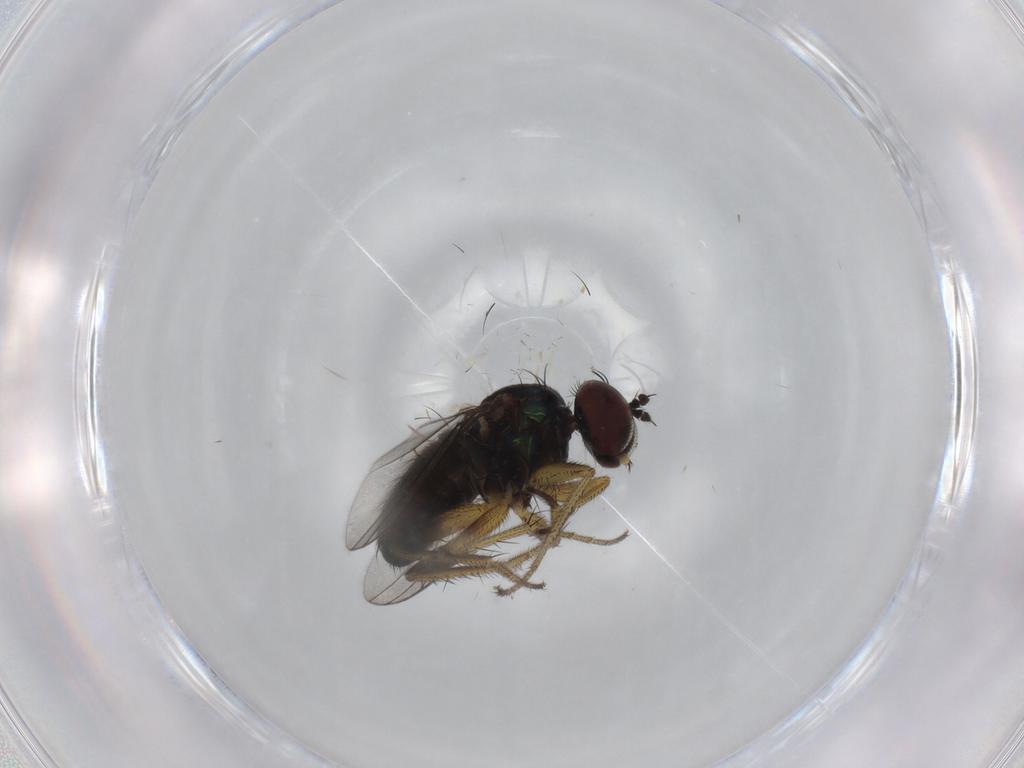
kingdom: Animalia
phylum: Arthropoda
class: Insecta
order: Diptera
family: Dolichopodidae
